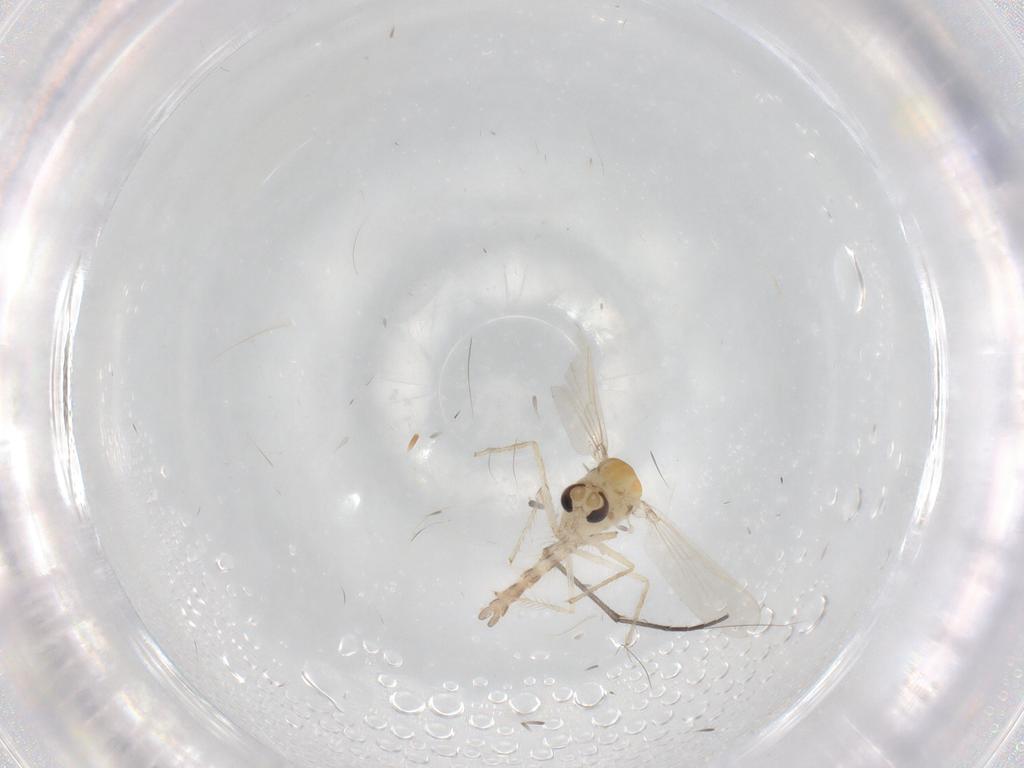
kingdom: Animalia
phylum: Arthropoda
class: Insecta
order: Diptera
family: Chironomidae
